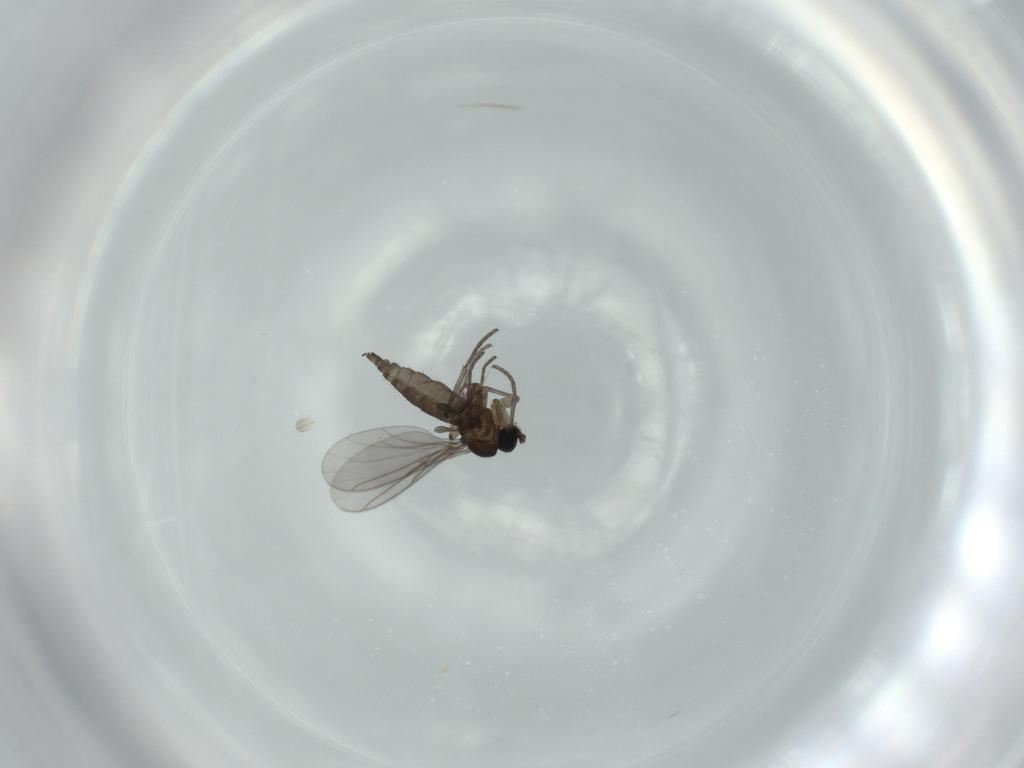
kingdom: Animalia
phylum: Arthropoda
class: Insecta
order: Diptera
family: Ceratopogonidae
